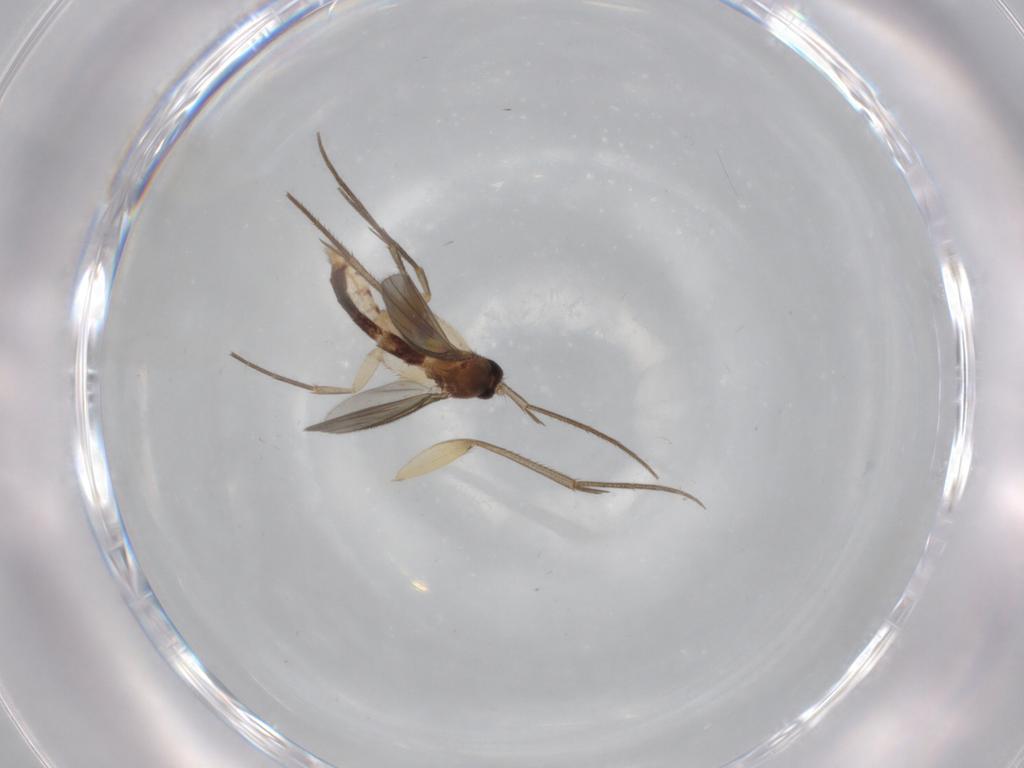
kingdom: Animalia
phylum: Arthropoda
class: Insecta
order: Diptera
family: Mycetophilidae
